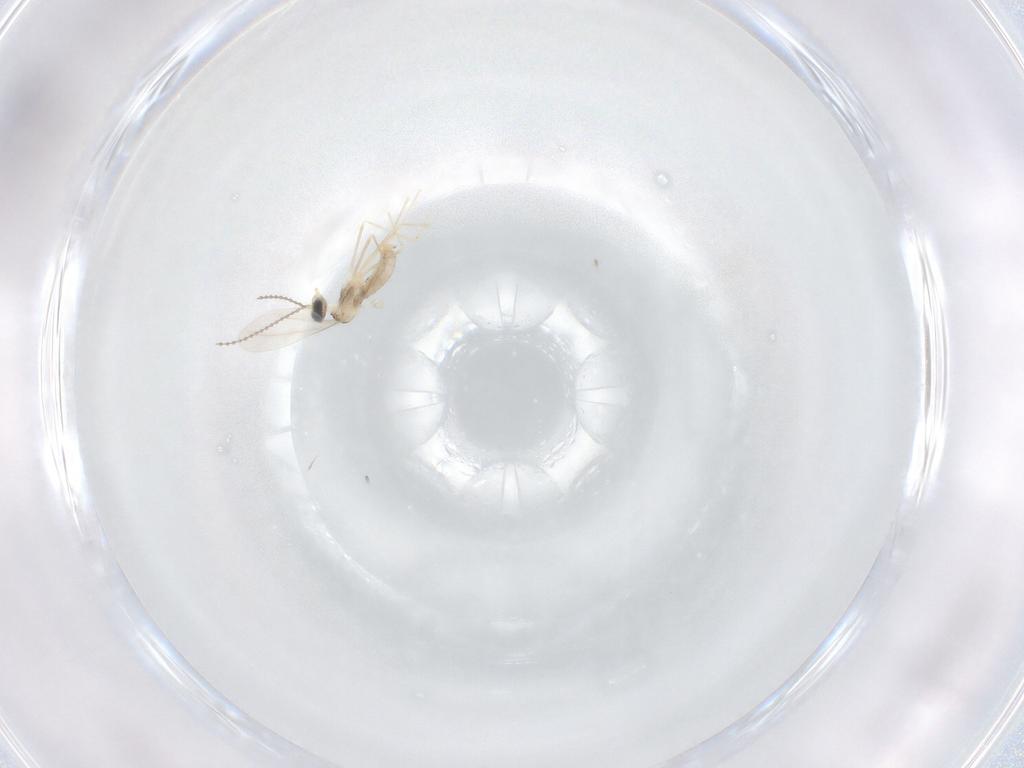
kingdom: Animalia
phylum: Arthropoda
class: Insecta
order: Diptera
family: Cecidomyiidae
